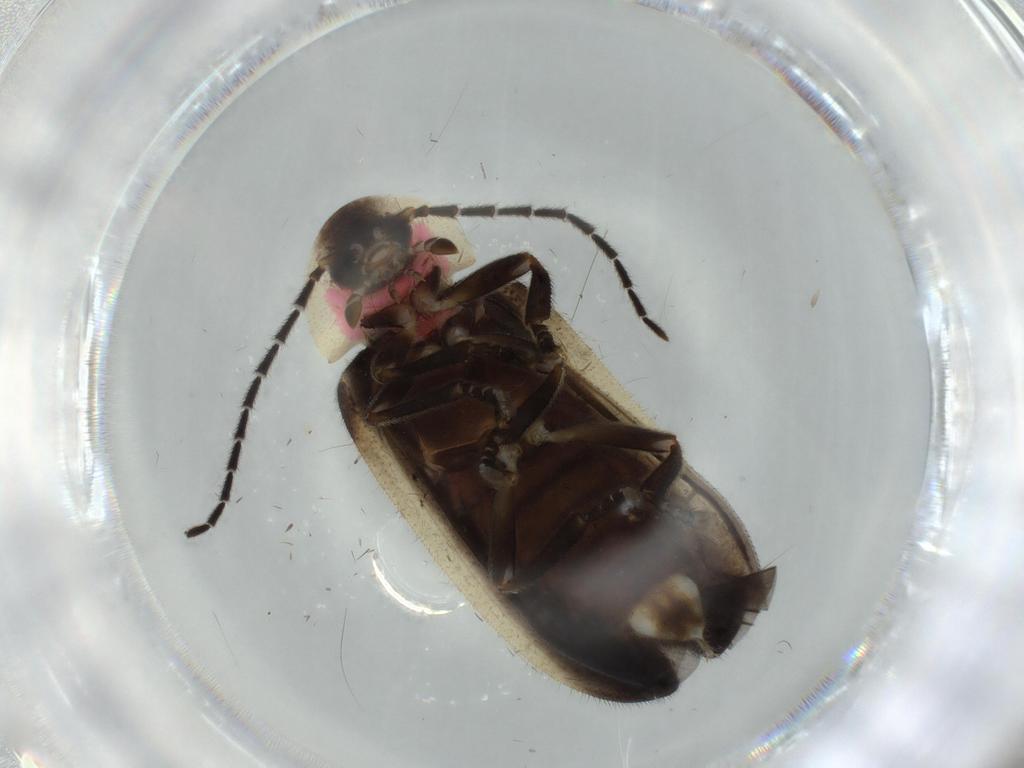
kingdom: Animalia
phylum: Arthropoda
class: Insecta
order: Coleoptera
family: Lampyridae
